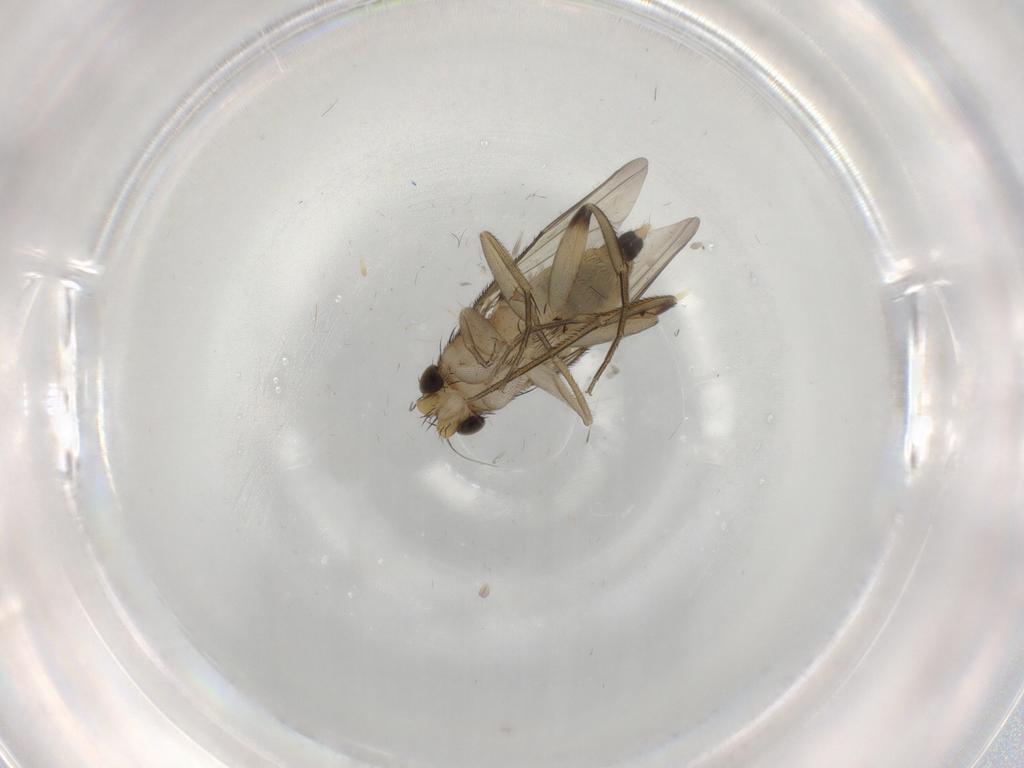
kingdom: Animalia
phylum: Arthropoda
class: Insecta
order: Diptera
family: Phoridae
